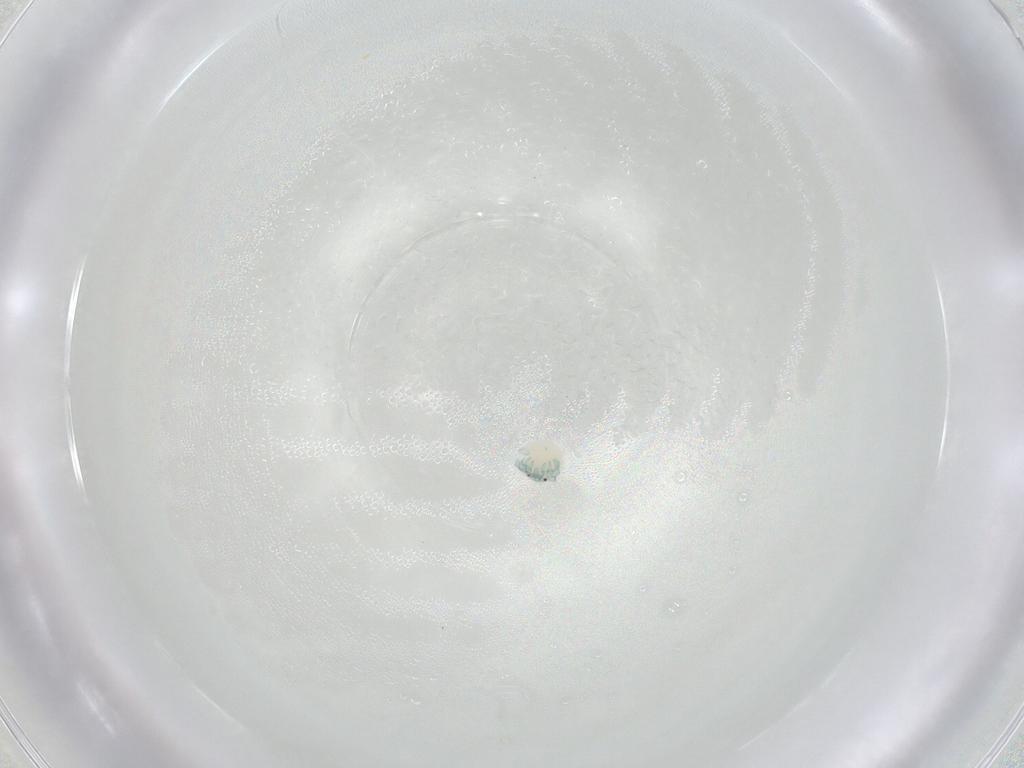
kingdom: Animalia
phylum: Arthropoda
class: Arachnida
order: Trombidiformes
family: Arrenuridae
